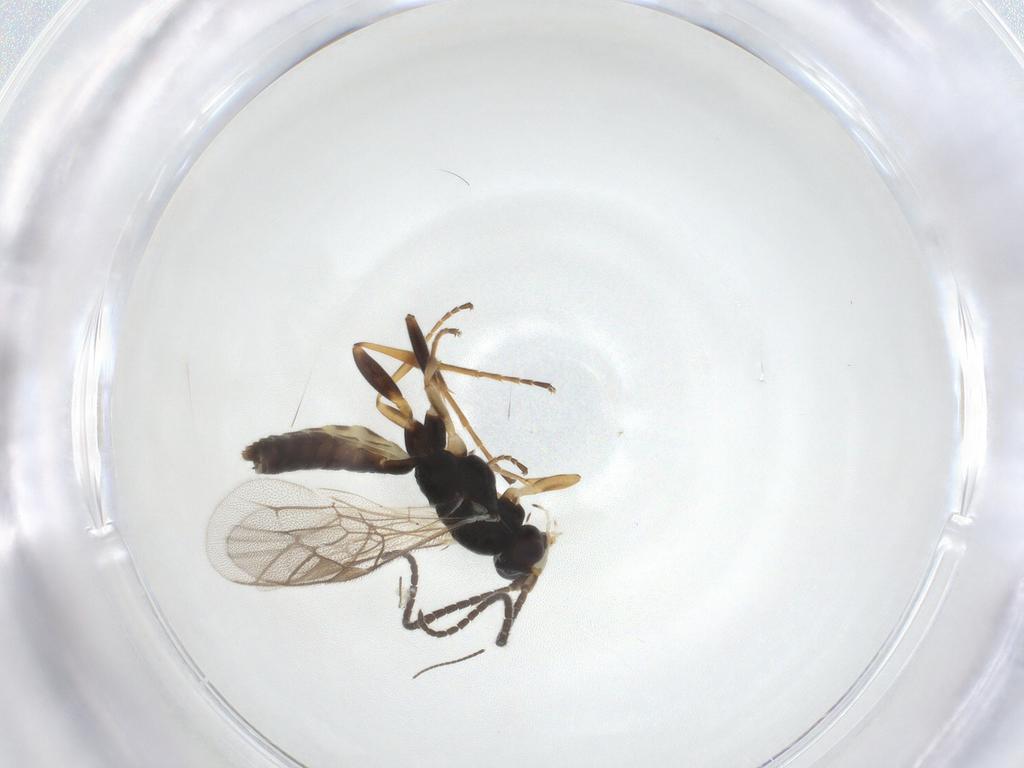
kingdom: Animalia
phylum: Arthropoda
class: Insecta
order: Hymenoptera
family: Ichneumonidae
